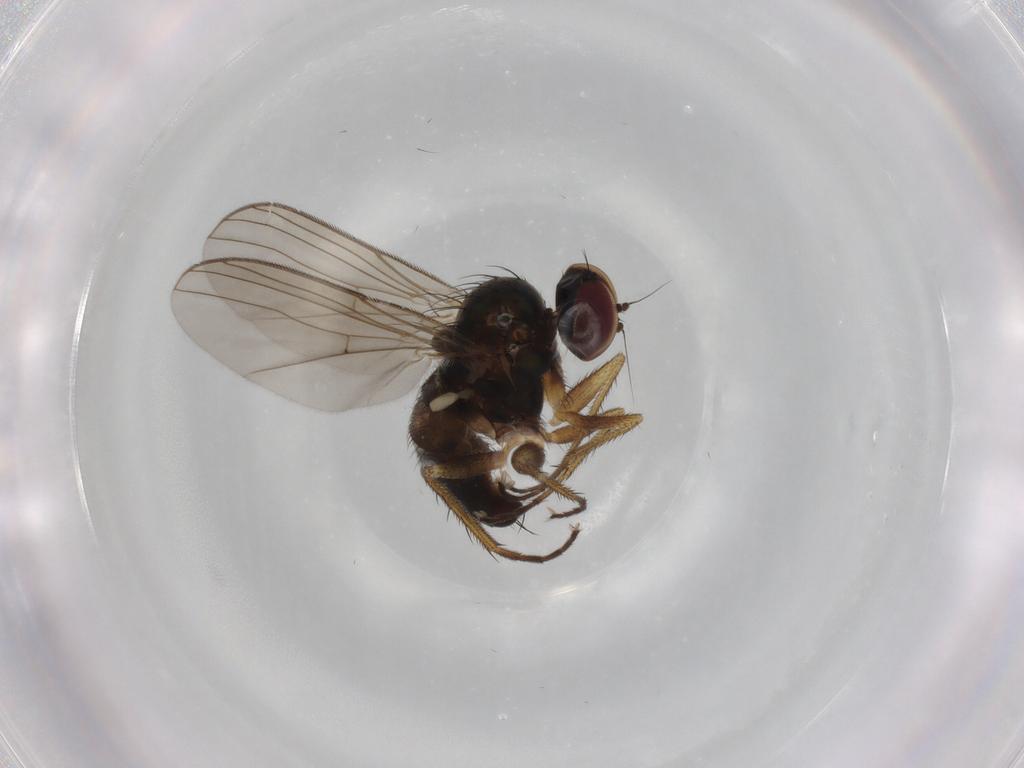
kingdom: Animalia
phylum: Arthropoda
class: Insecta
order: Diptera
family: Dolichopodidae
